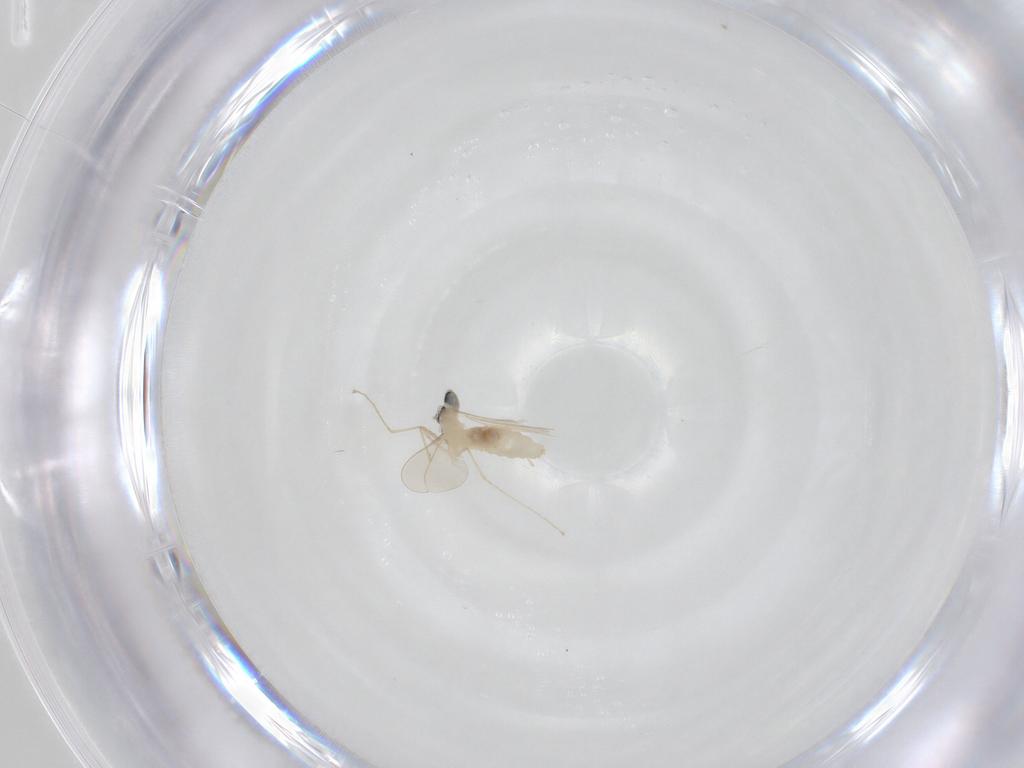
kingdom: Animalia
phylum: Arthropoda
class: Insecta
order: Diptera
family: Cecidomyiidae
